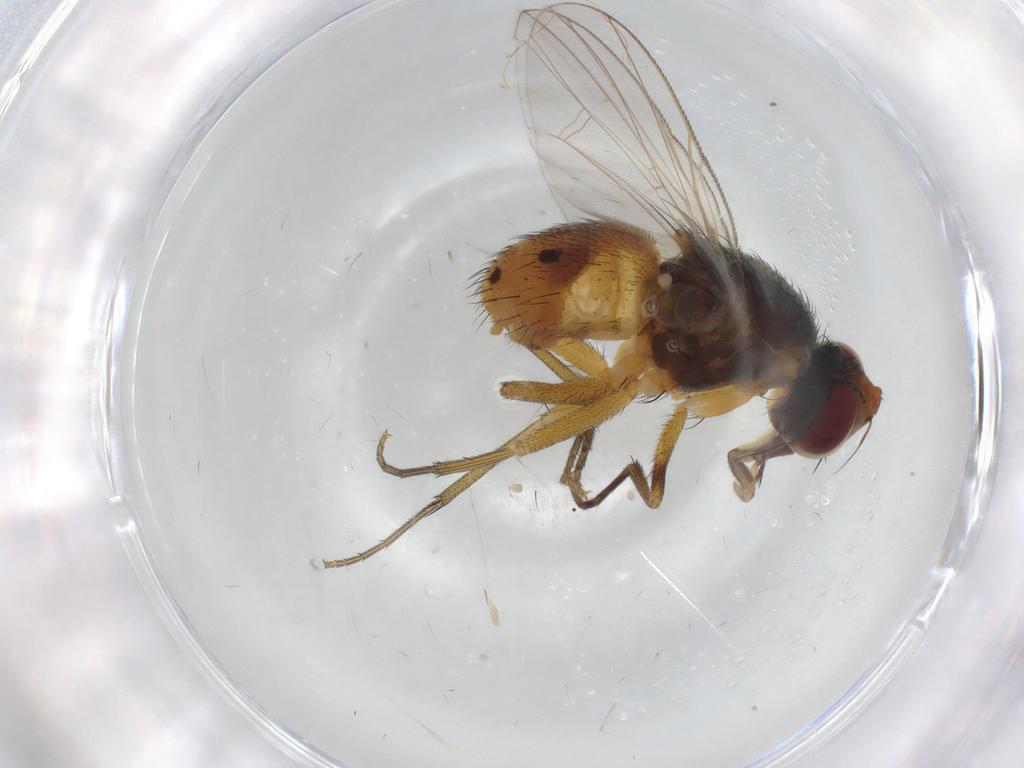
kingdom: Animalia
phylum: Arthropoda
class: Insecta
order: Diptera
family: Muscidae
